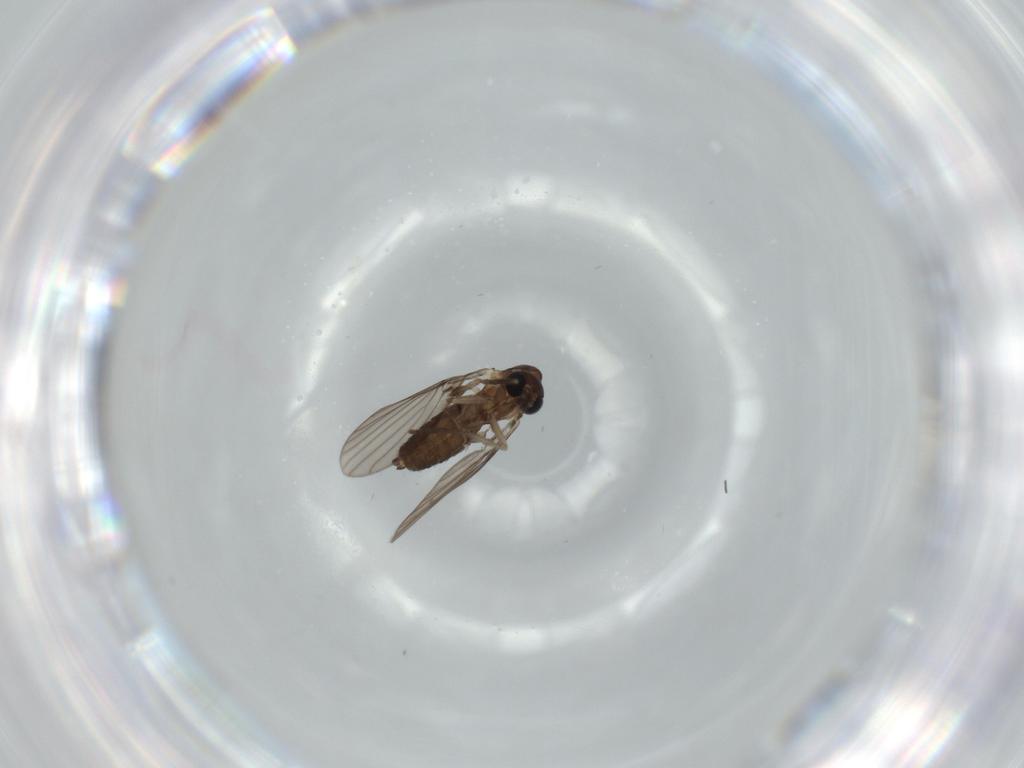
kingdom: Animalia
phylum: Arthropoda
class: Insecta
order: Diptera
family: Psychodidae
